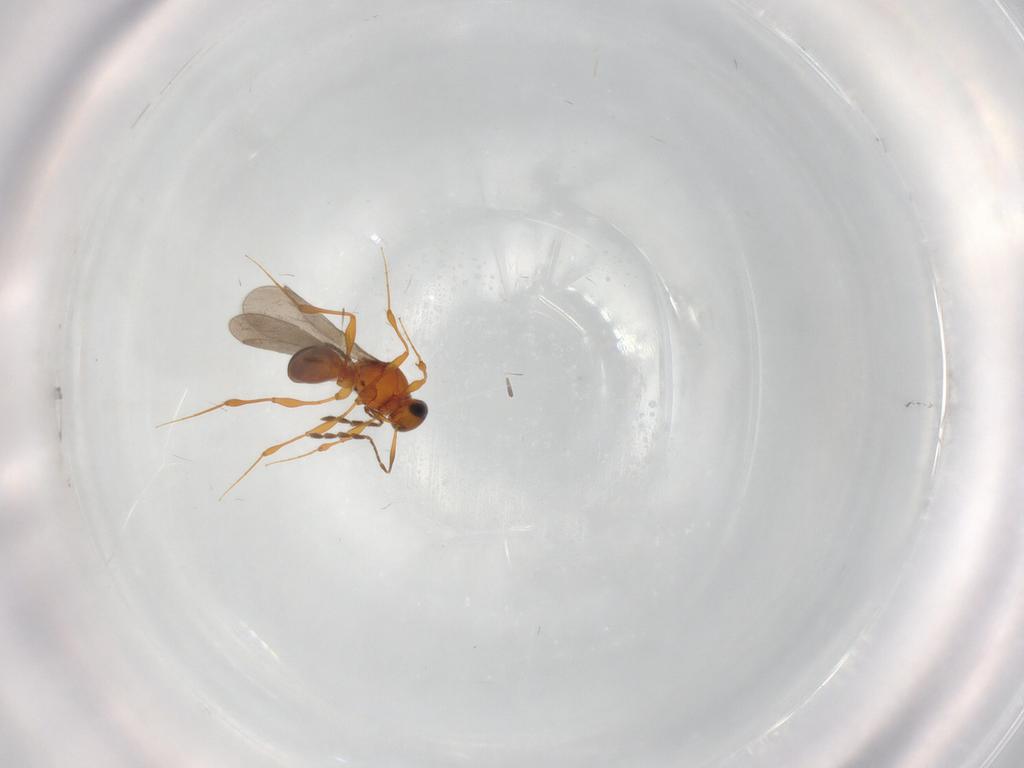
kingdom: Animalia
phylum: Arthropoda
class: Insecta
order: Hymenoptera
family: Platygastridae
